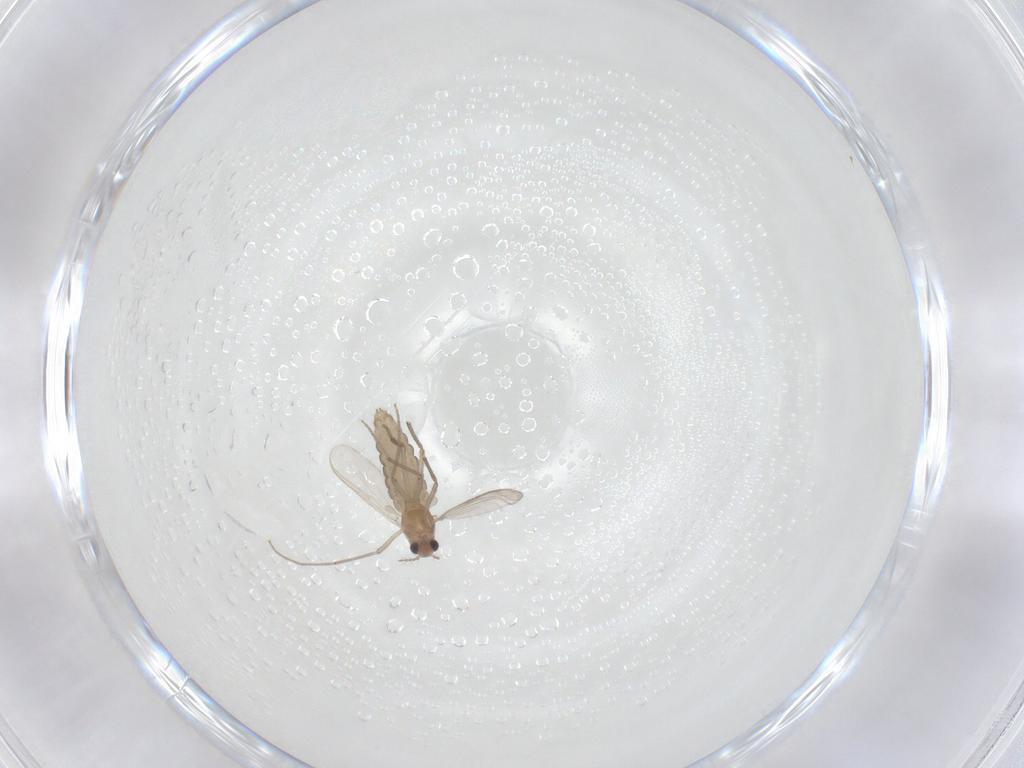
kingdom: Animalia
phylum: Arthropoda
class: Insecta
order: Diptera
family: Chironomidae
